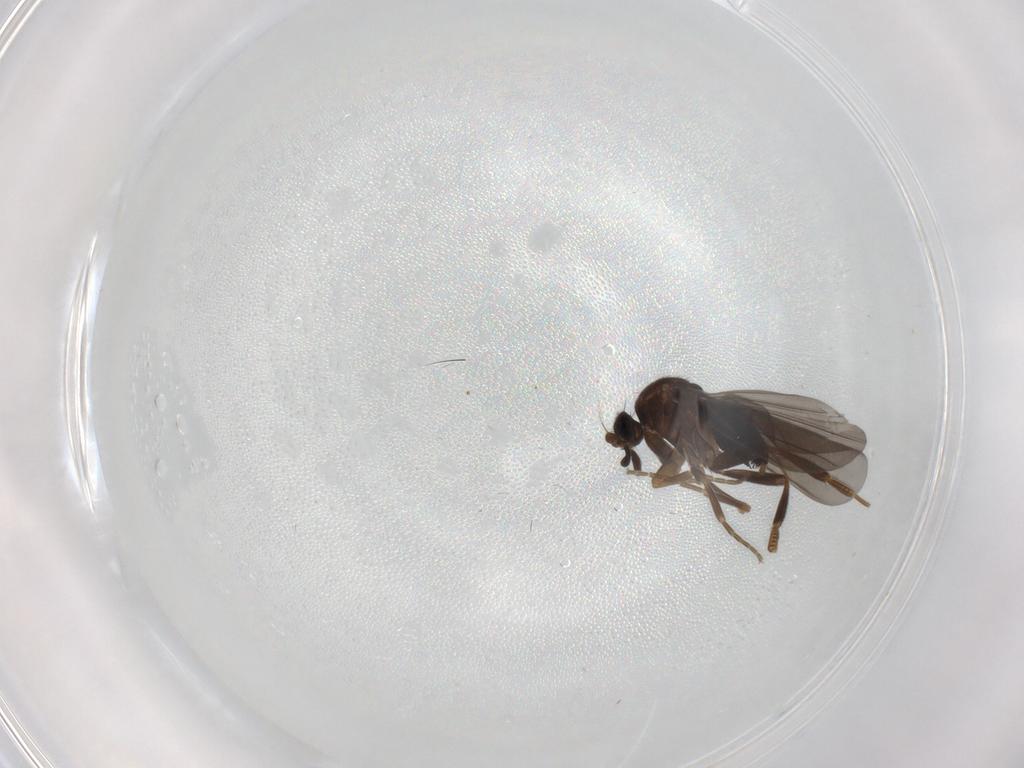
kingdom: Animalia
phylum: Arthropoda
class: Insecta
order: Diptera
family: Phoridae
